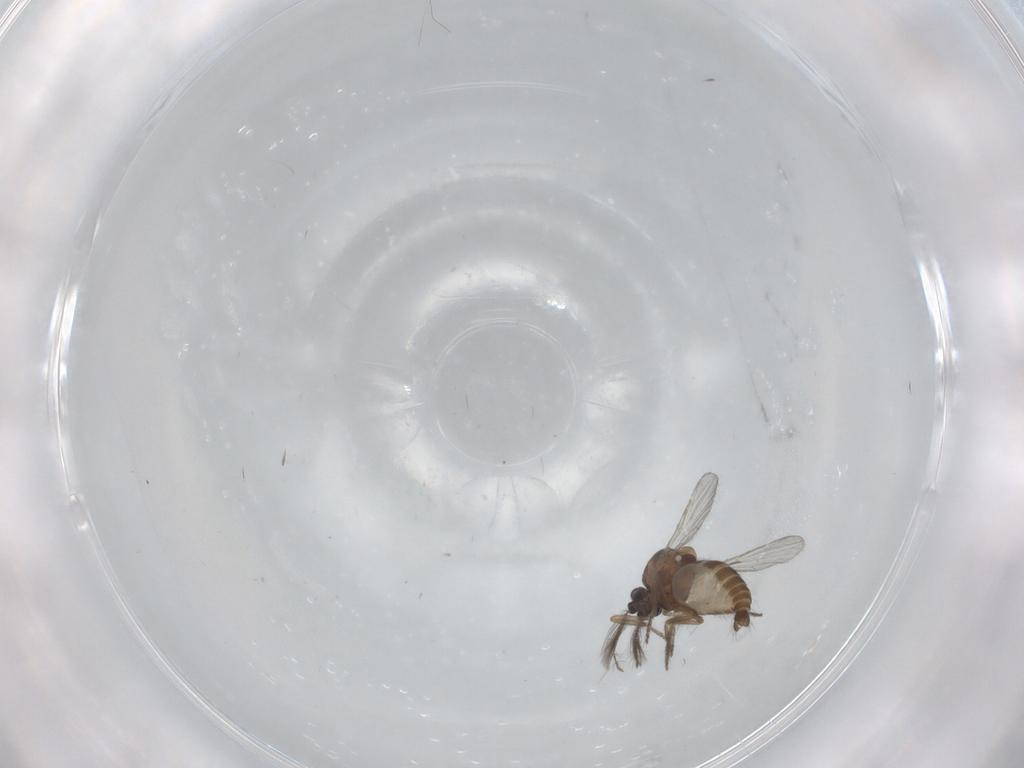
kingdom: Animalia
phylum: Arthropoda
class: Insecta
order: Diptera
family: Ceratopogonidae
